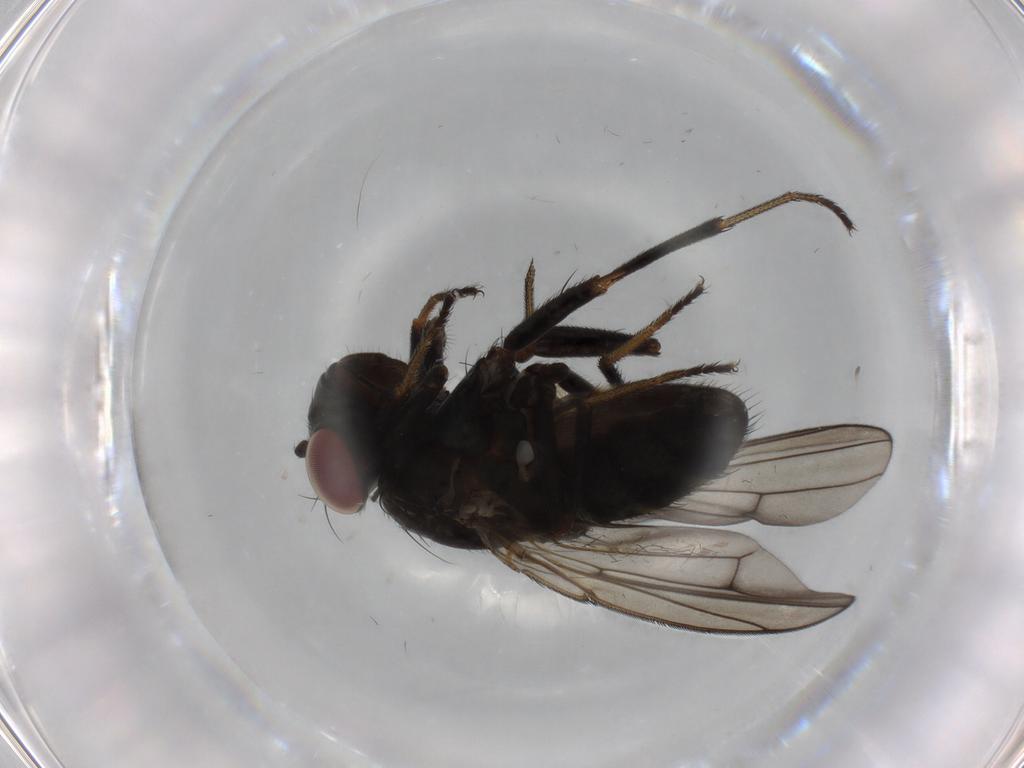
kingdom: Animalia
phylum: Arthropoda
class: Insecta
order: Diptera
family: Ephydridae
